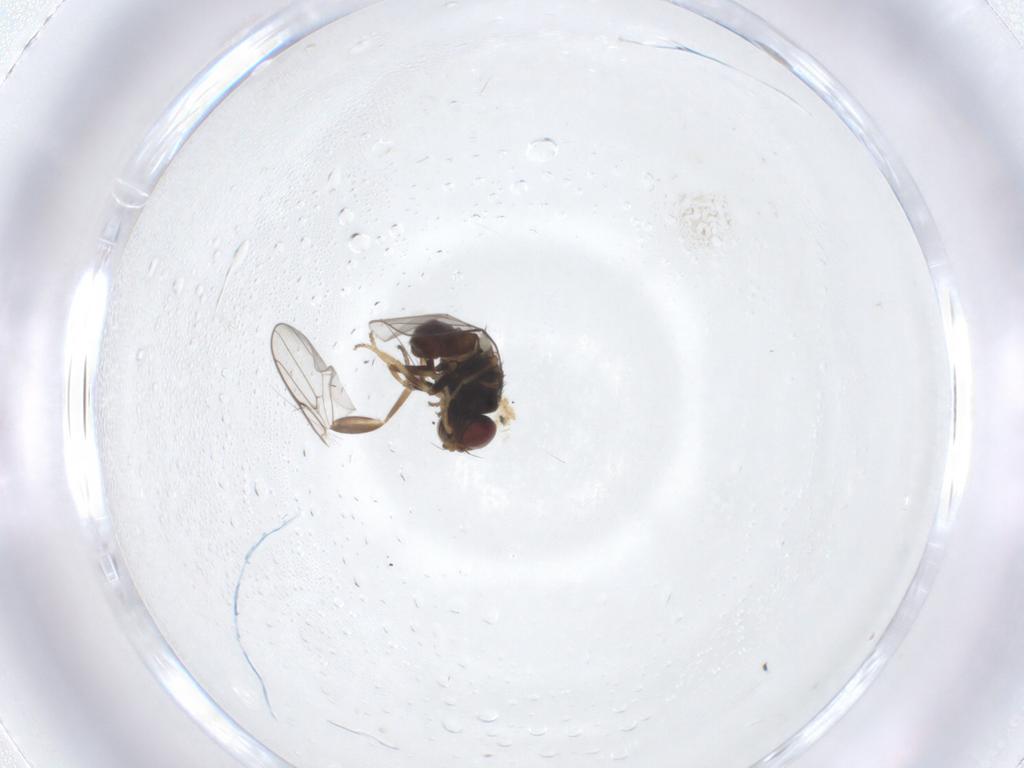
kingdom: Animalia
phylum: Arthropoda
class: Insecta
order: Diptera
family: Chloropidae
